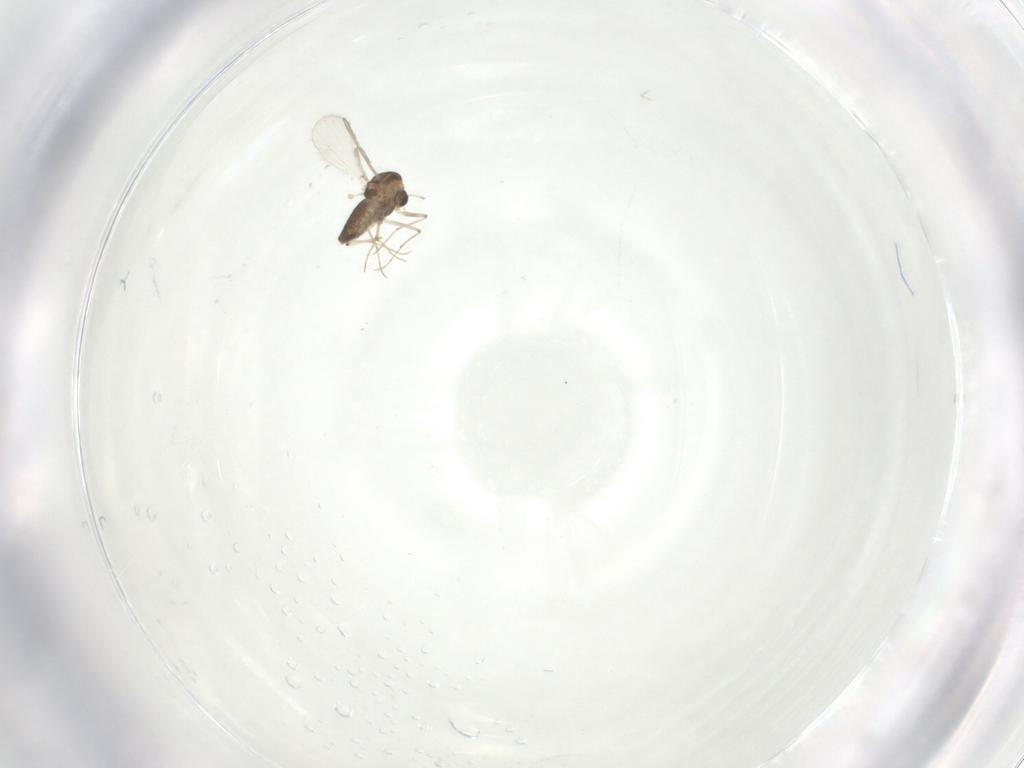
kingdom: Animalia
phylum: Arthropoda
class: Insecta
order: Diptera
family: Chironomidae
